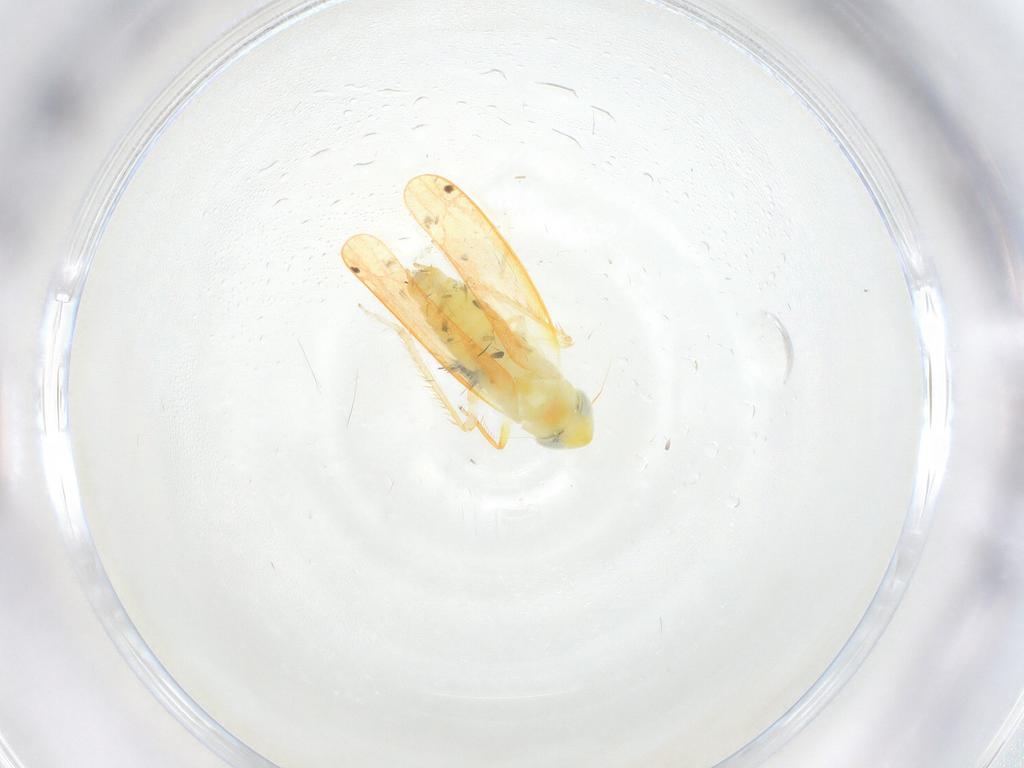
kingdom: Animalia
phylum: Arthropoda
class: Insecta
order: Hemiptera
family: Cicadellidae
